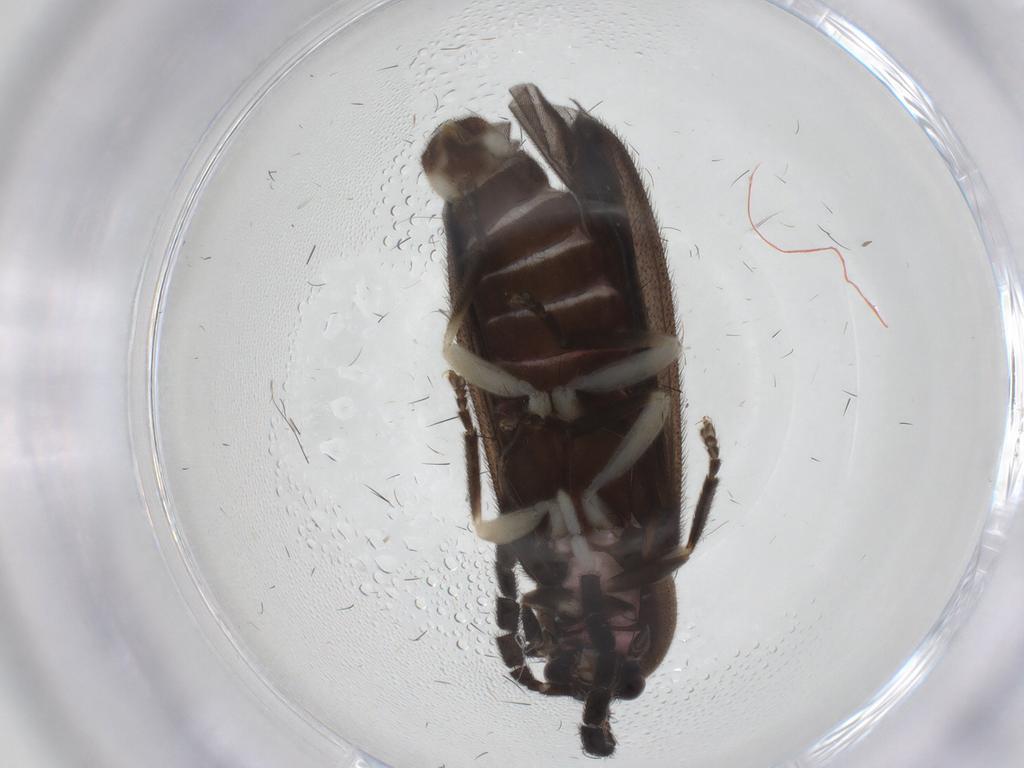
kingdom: Animalia
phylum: Arthropoda
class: Insecta
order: Coleoptera
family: Lampyridae
